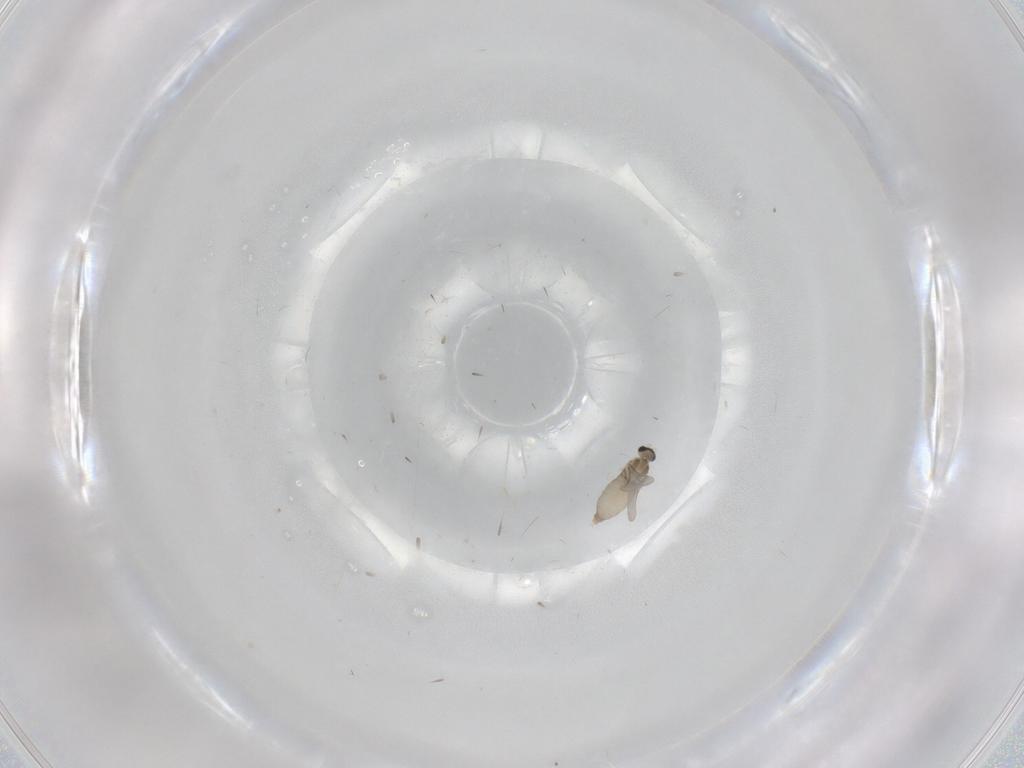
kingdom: Animalia
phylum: Arthropoda
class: Insecta
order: Diptera
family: Cecidomyiidae
